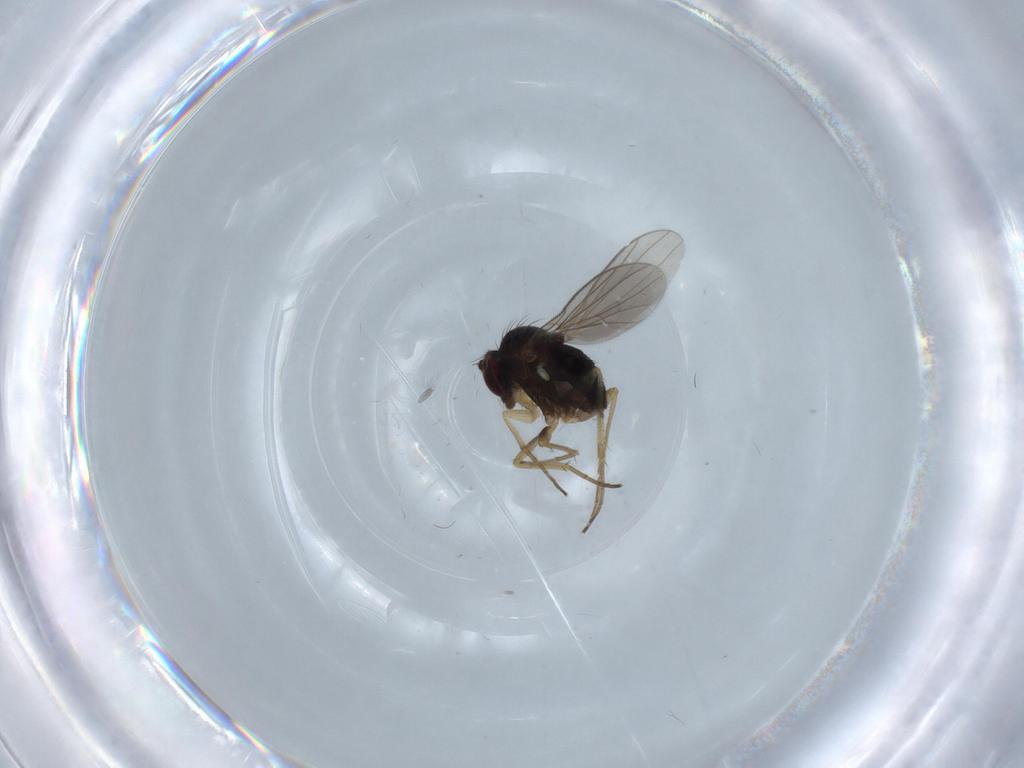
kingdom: Animalia
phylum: Arthropoda
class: Insecta
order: Diptera
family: Dolichopodidae
